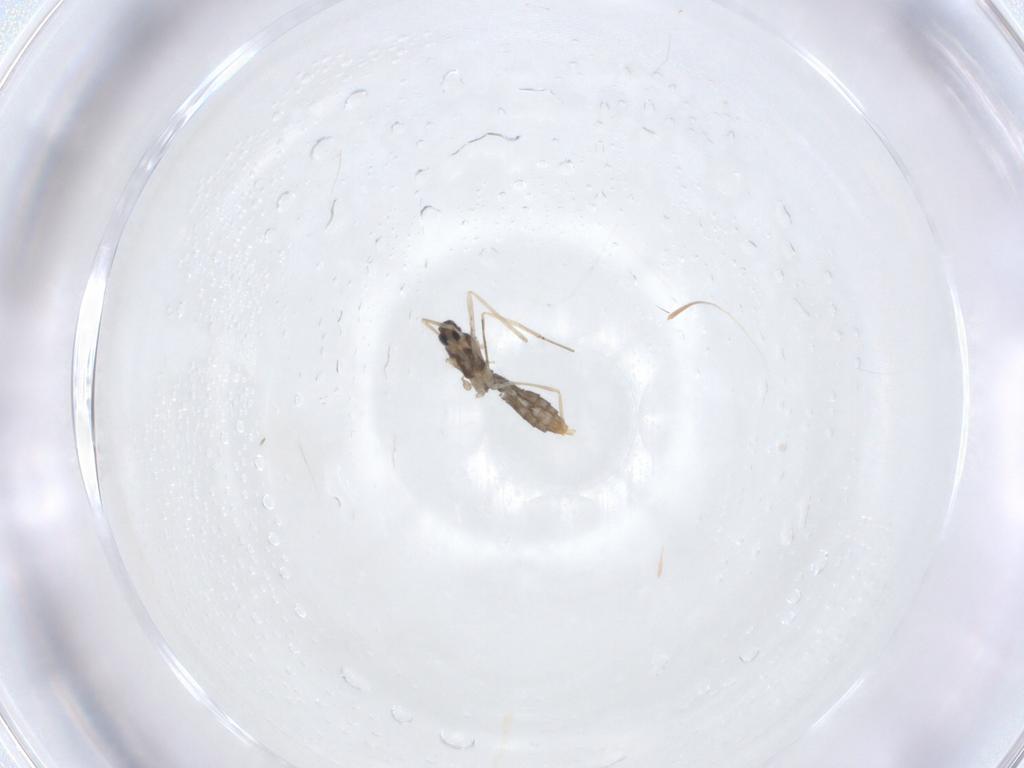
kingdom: Animalia
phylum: Arthropoda
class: Insecta
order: Diptera
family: Cecidomyiidae
